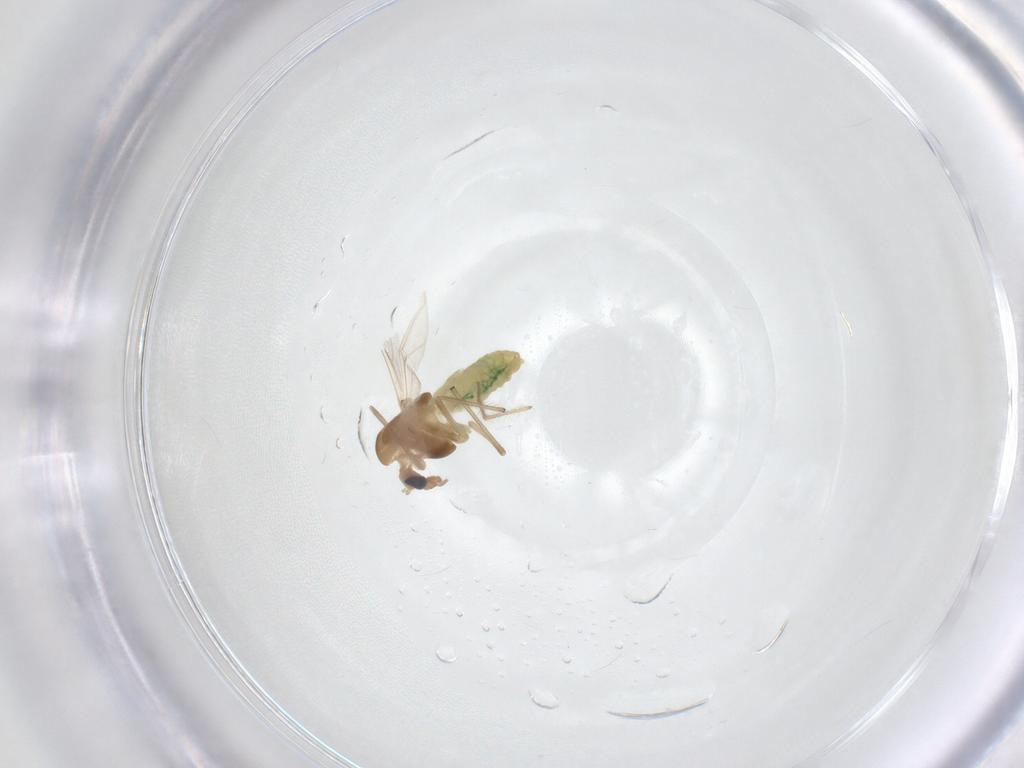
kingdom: Animalia
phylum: Arthropoda
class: Insecta
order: Diptera
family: Chironomidae
